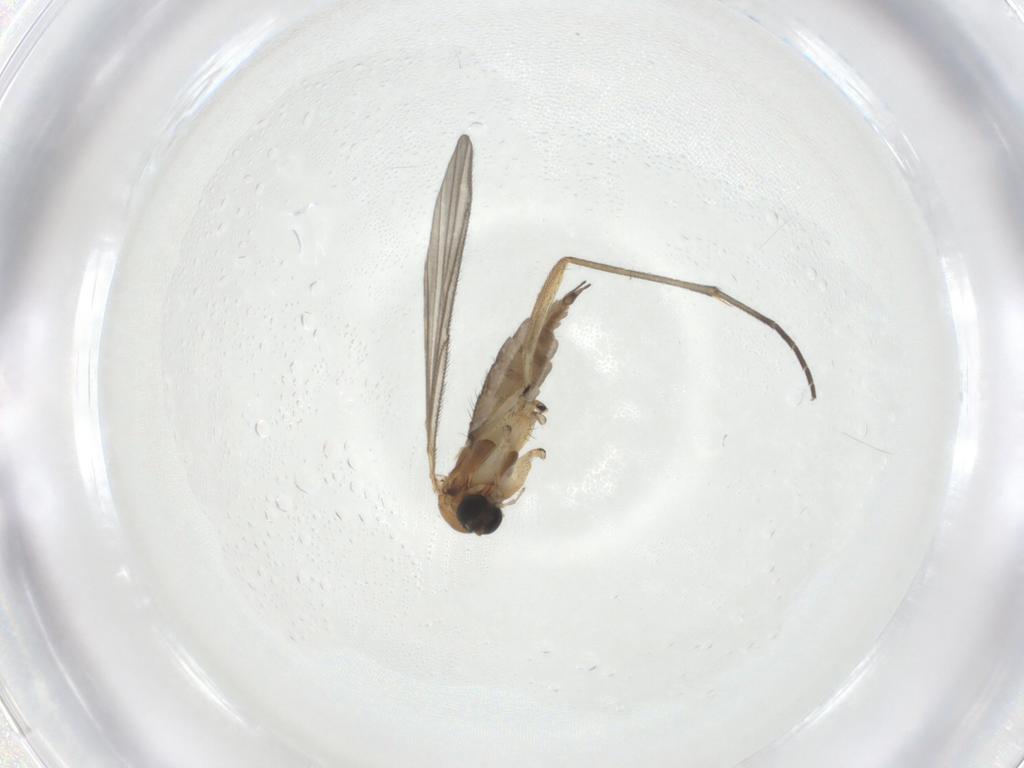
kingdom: Animalia
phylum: Arthropoda
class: Insecta
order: Diptera
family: Sciaridae
